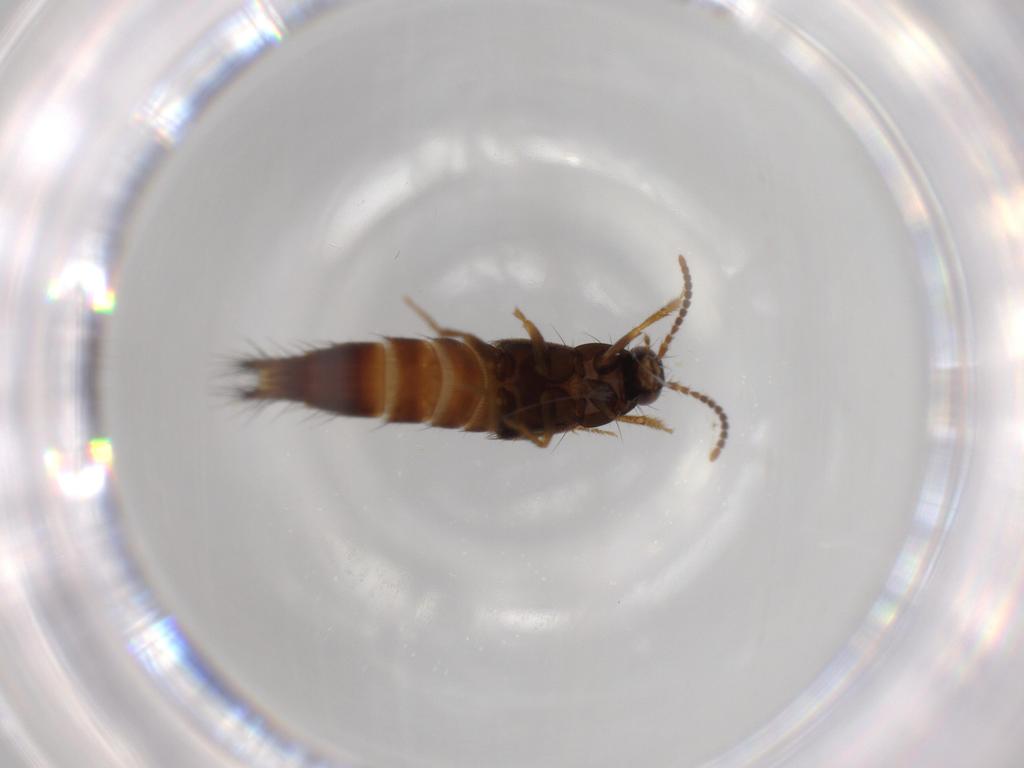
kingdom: Animalia
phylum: Arthropoda
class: Insecta
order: Coleoptera
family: Staphylinidae
